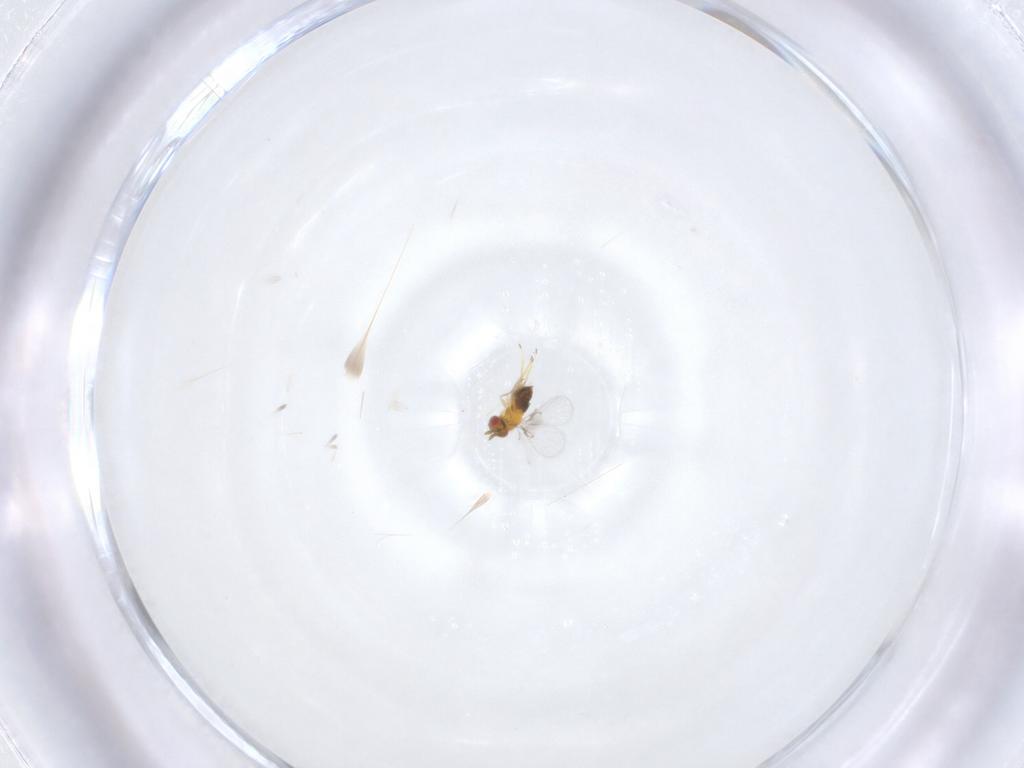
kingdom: Animalia
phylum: Arthropoda
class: Insecta
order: Hymenoptera
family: Trichogrammatidae
